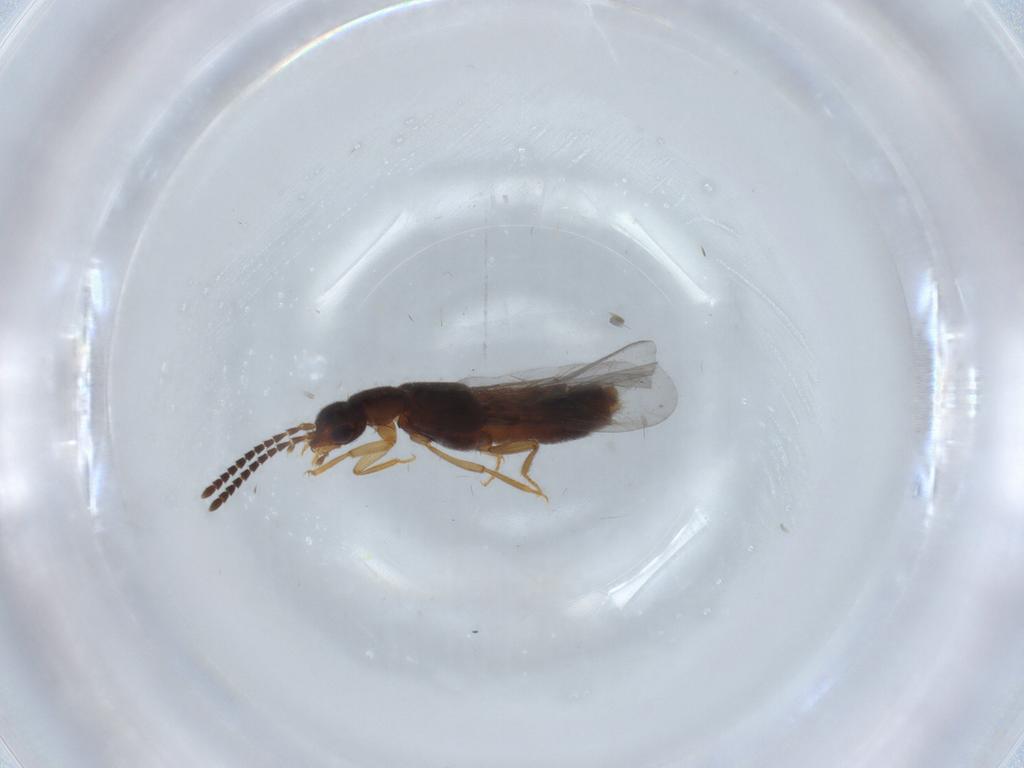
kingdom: Animalia
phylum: Arthropoda
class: Insecta
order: Coleoptera
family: Staphylinidae
